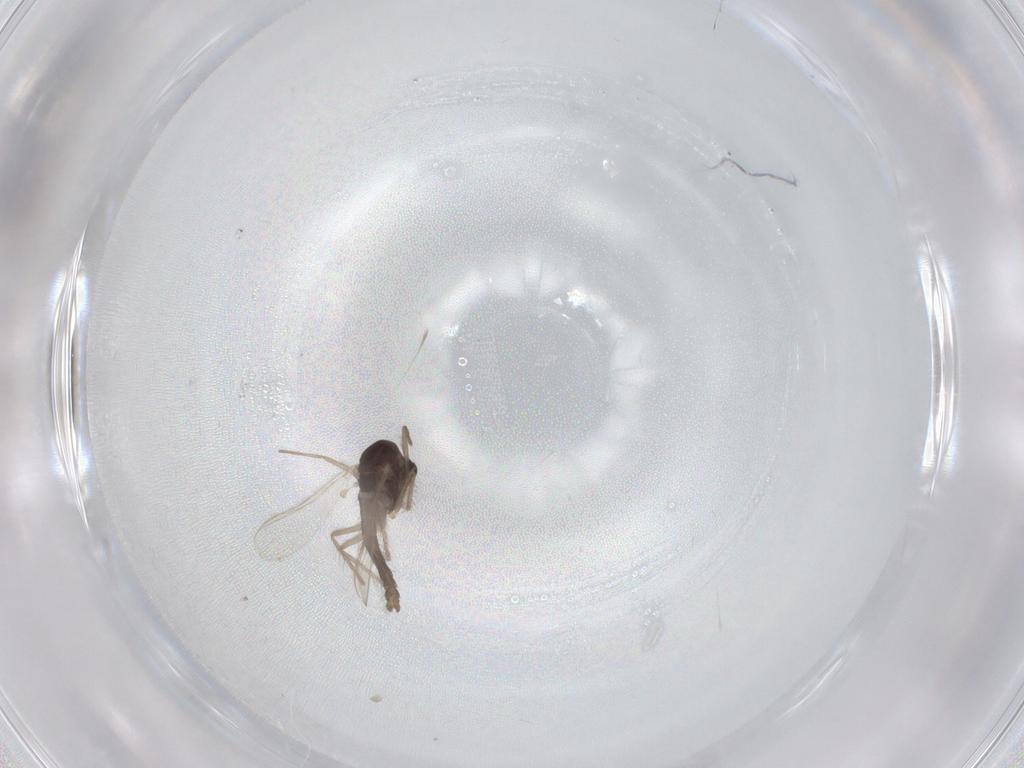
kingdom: Animalia
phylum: Arthropoda
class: Insecta
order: Diptera
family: Chironomidae
